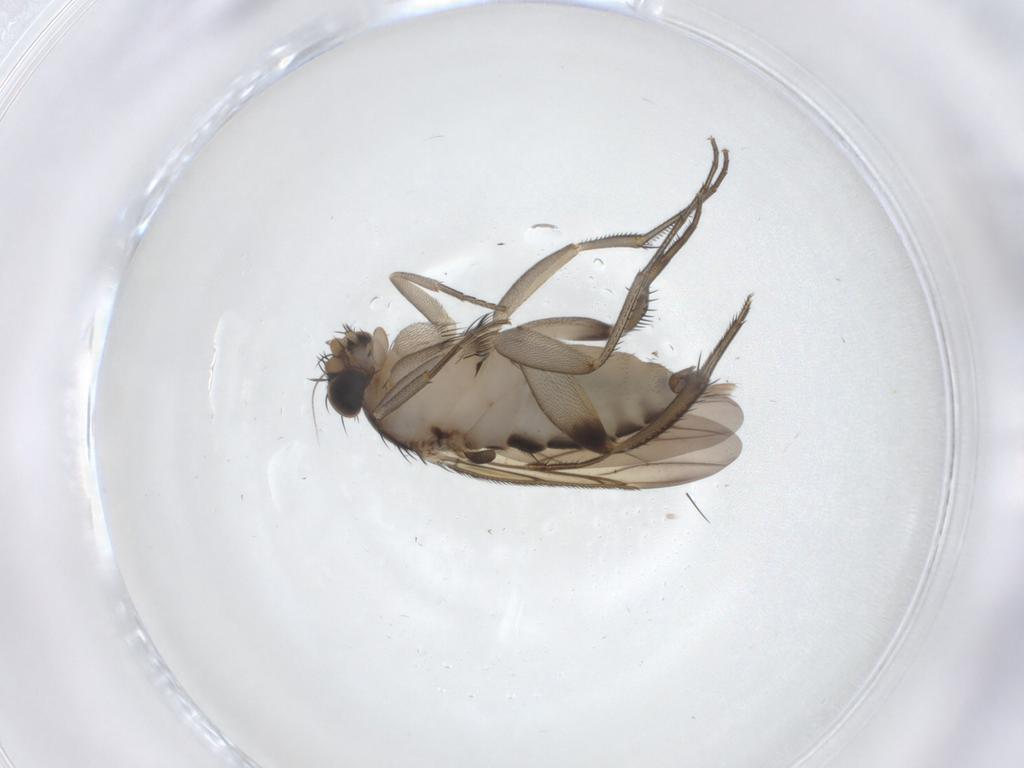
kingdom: Animalia
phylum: Arthropoda
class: Insecta
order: Diptera
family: Phoridae
